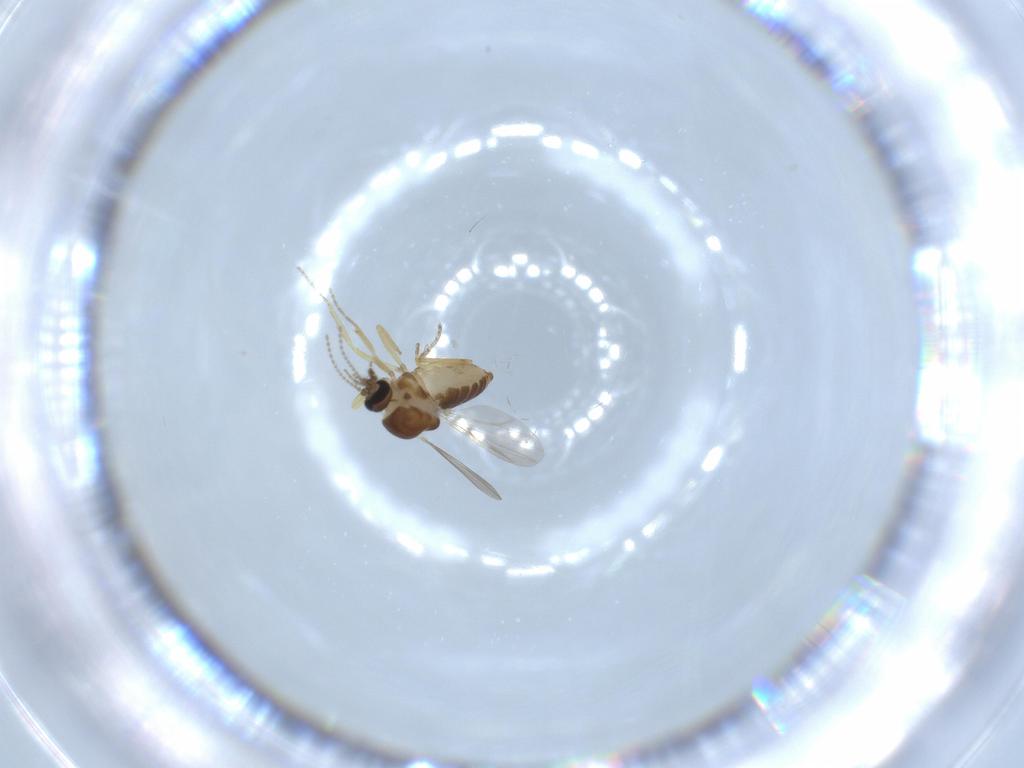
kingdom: Animalia
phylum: Arthropoda
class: Insecta
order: Diptera
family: Ceratopogonidae
